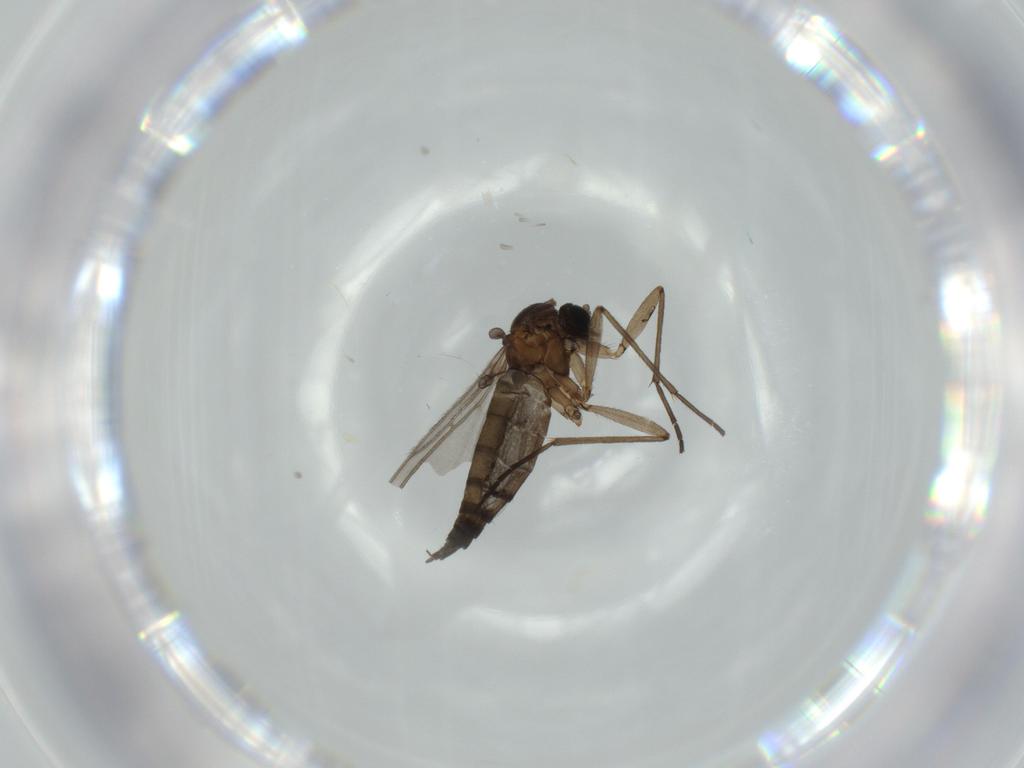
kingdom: Animalia
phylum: Arthropoda
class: Insecta
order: Diptera
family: Sciaridae
